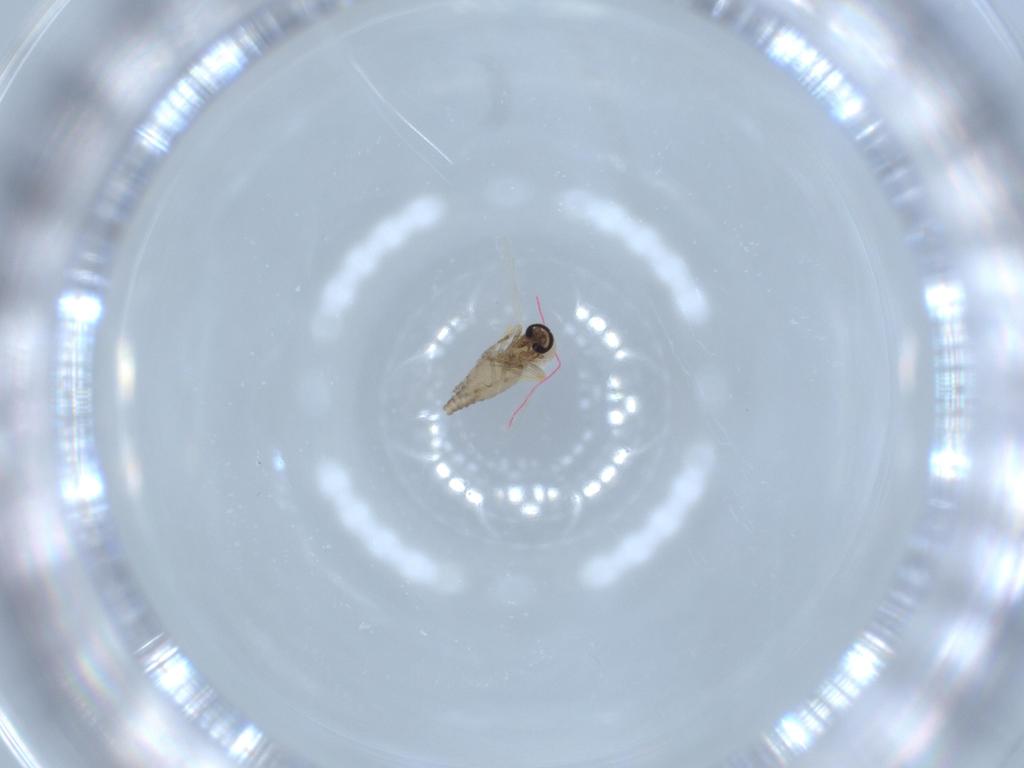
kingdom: Animalia
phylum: Arthropoda
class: Insecta
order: Diptera
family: Ceratopogonidae
